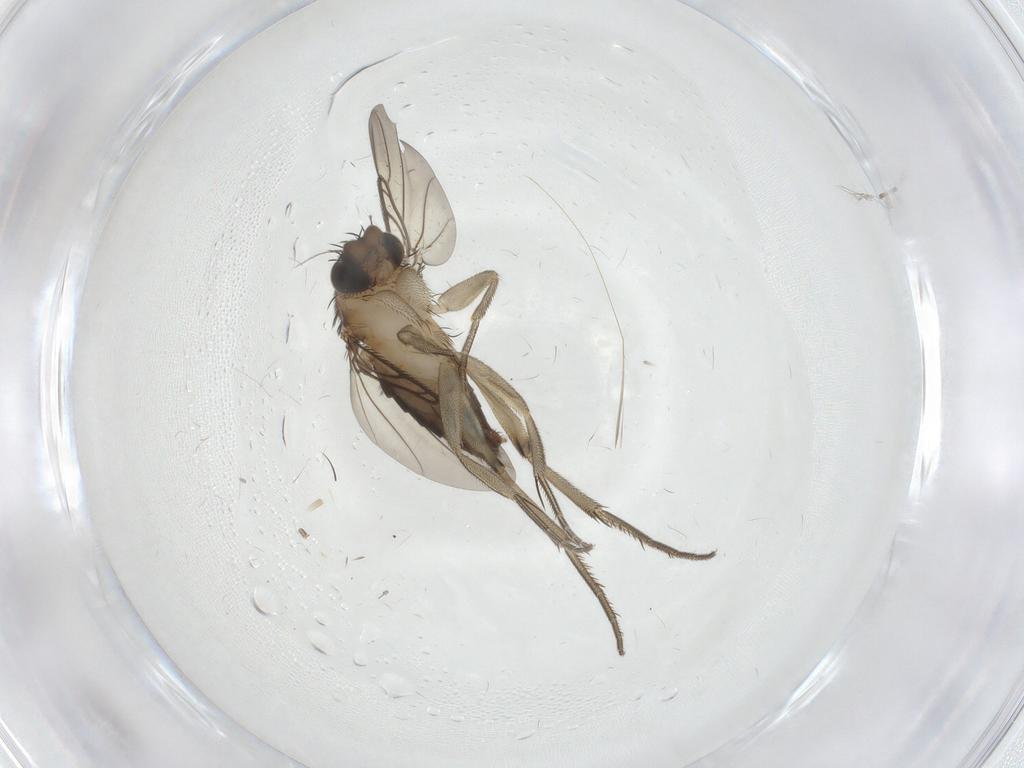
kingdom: Animalia
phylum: Arthropoda
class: Insecta
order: Diptera
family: Phoridae
